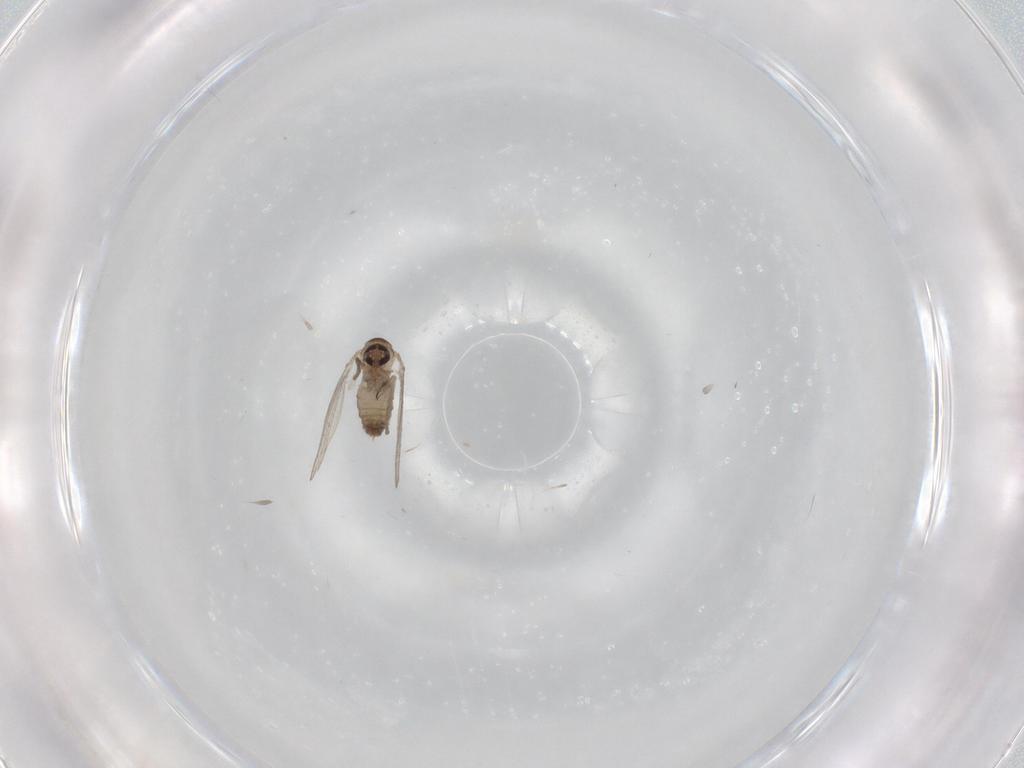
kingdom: Animalia
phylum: Arthropoda
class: Insecta
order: Diptera
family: Psychodidae
